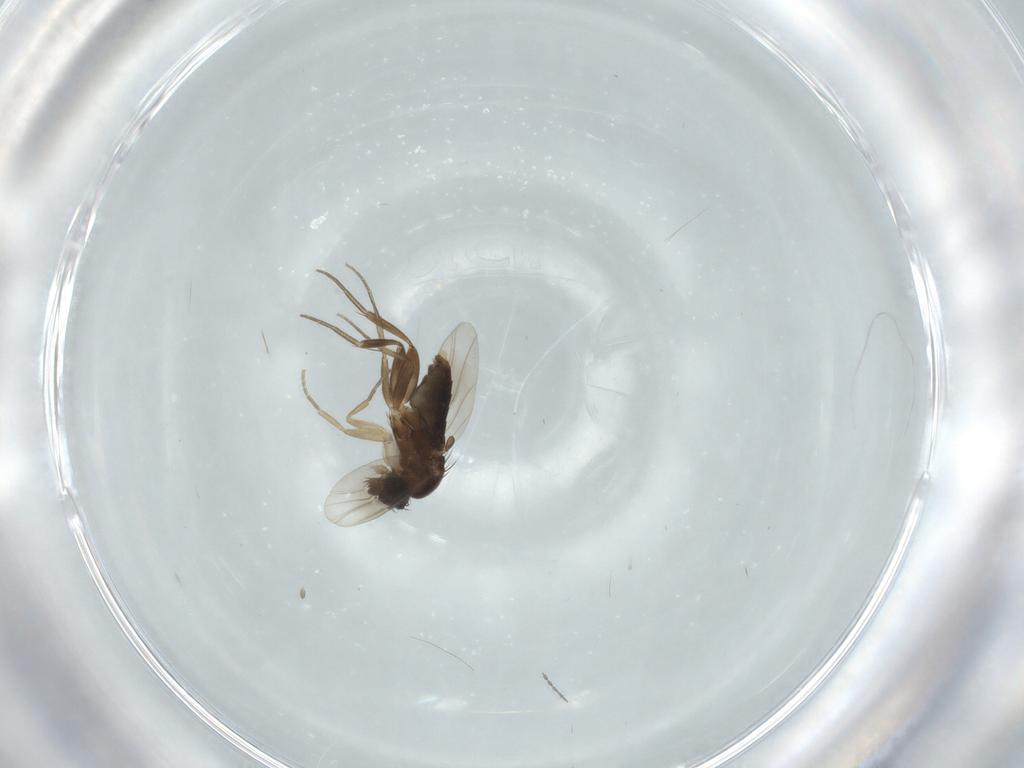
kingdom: Animalia
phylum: Arthropoda
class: Insecta
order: Diptera
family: Phoridae
